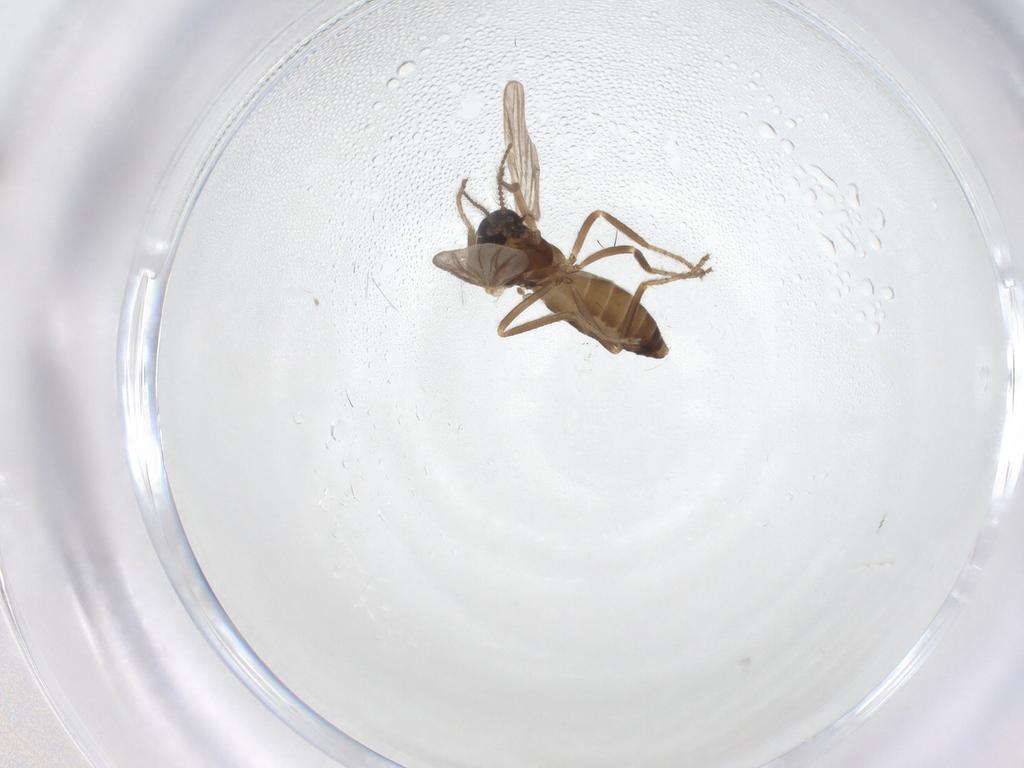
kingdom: Animalia
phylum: Arthropoda
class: Insecta
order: Diptera
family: Ceratopogonidae
